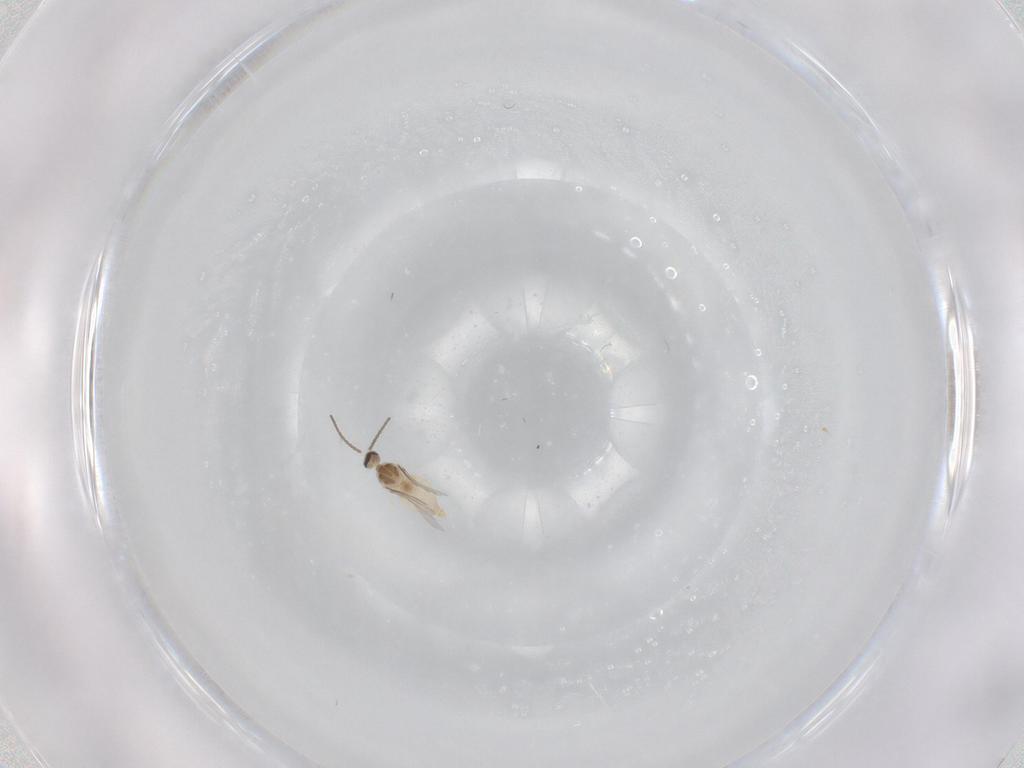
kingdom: Animalia
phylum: Arthropoda
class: Insecta
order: Diptera
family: Cecidomyiidae
